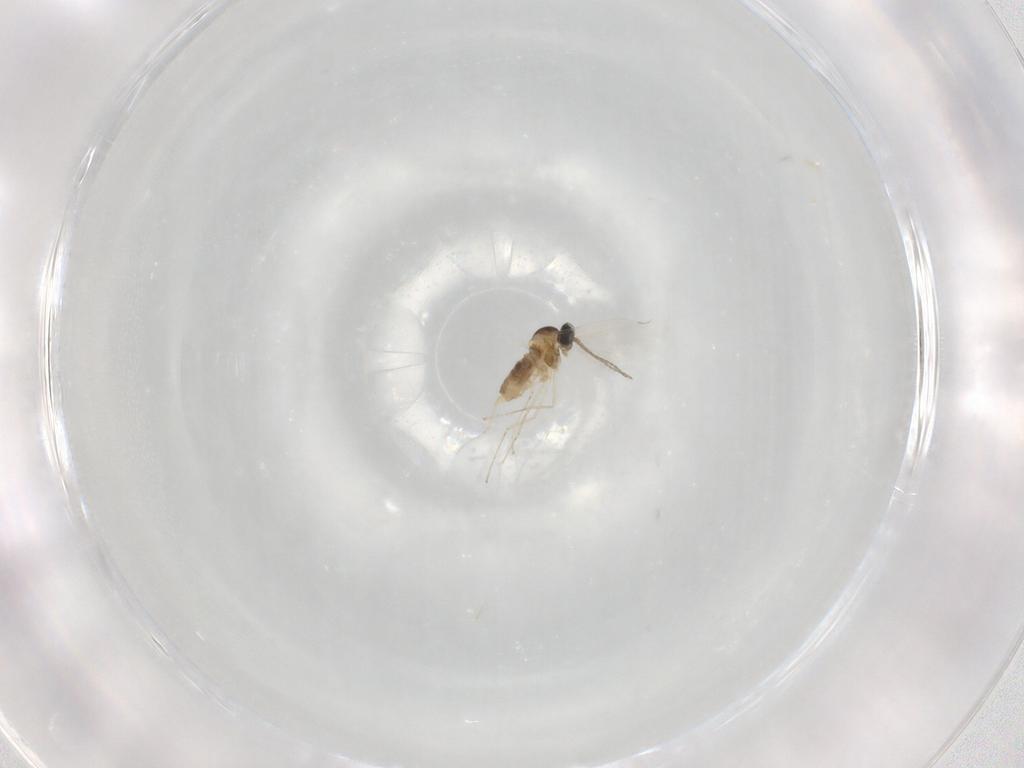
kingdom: Animalia
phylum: Arthropoda
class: Insecta
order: Diptera
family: Cecidomyiidae
